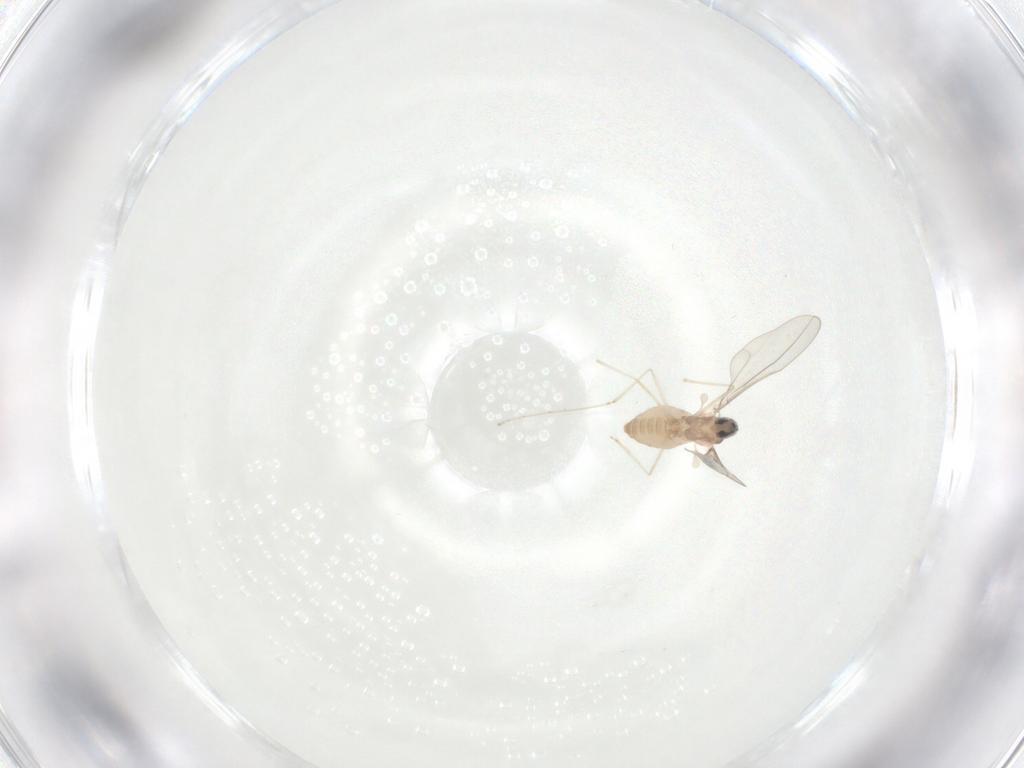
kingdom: Animalia
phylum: Arthropoda
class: Insecta
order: Diptera
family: Cecidomyiidae
